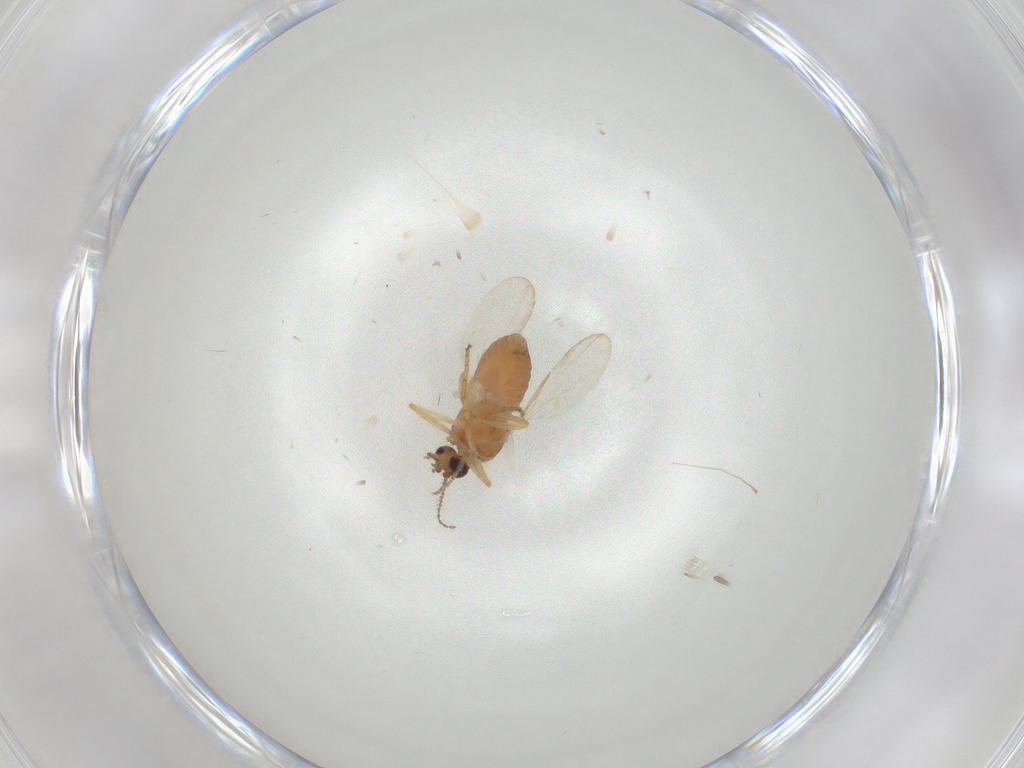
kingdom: Animalia
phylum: Arthropoda
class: Insecta
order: Diptera
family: Ceratopogonidae
